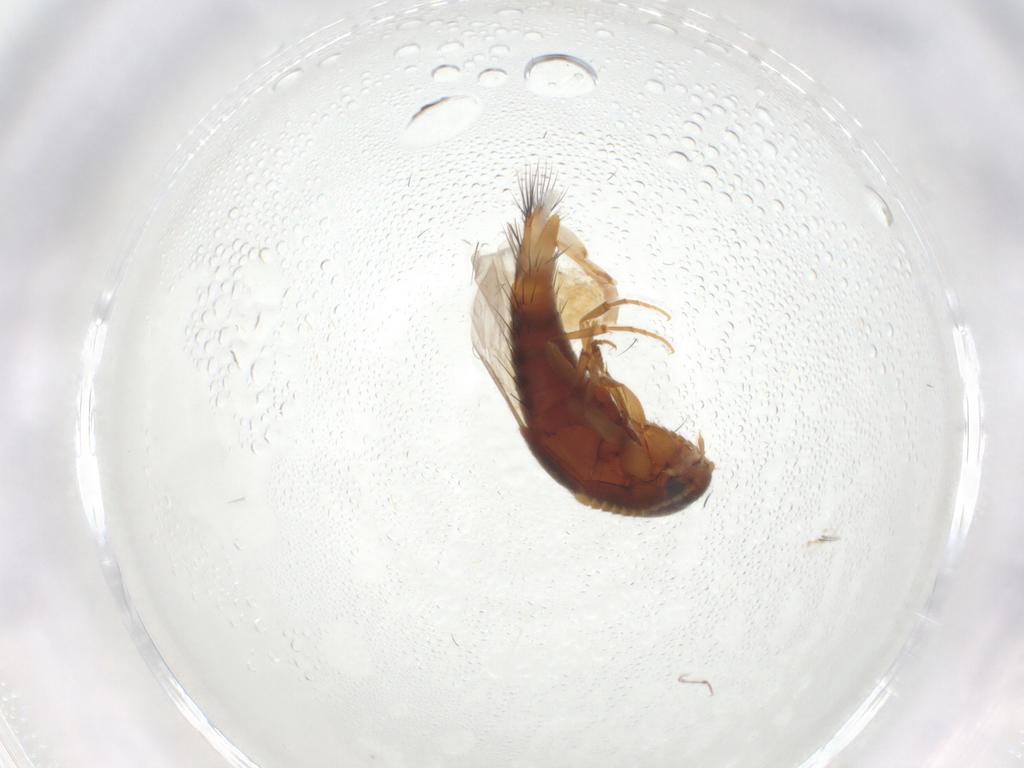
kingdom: Animalia
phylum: Arthropoda
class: Insecta
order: Coleoptera
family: Staphylinidae
